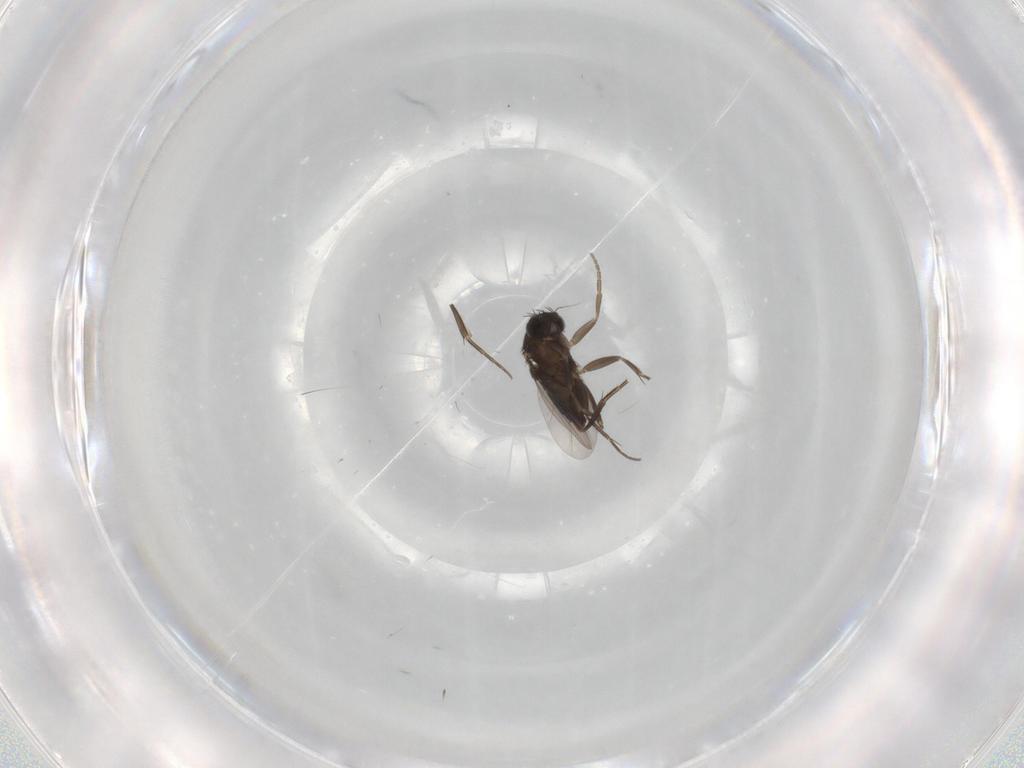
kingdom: Animalia
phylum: Arthropoda
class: Insecta
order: Diptera
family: Phoridae
